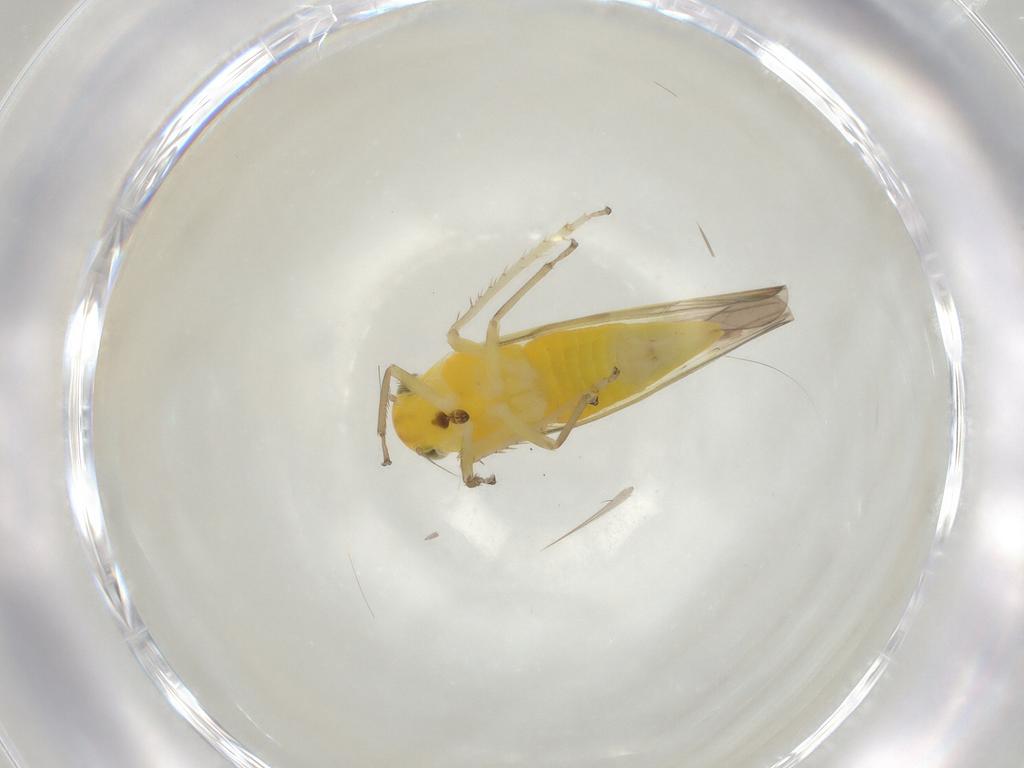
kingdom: Animalia
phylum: Arthropoda
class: Insecta
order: Hemiptera
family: Cicadellidae
